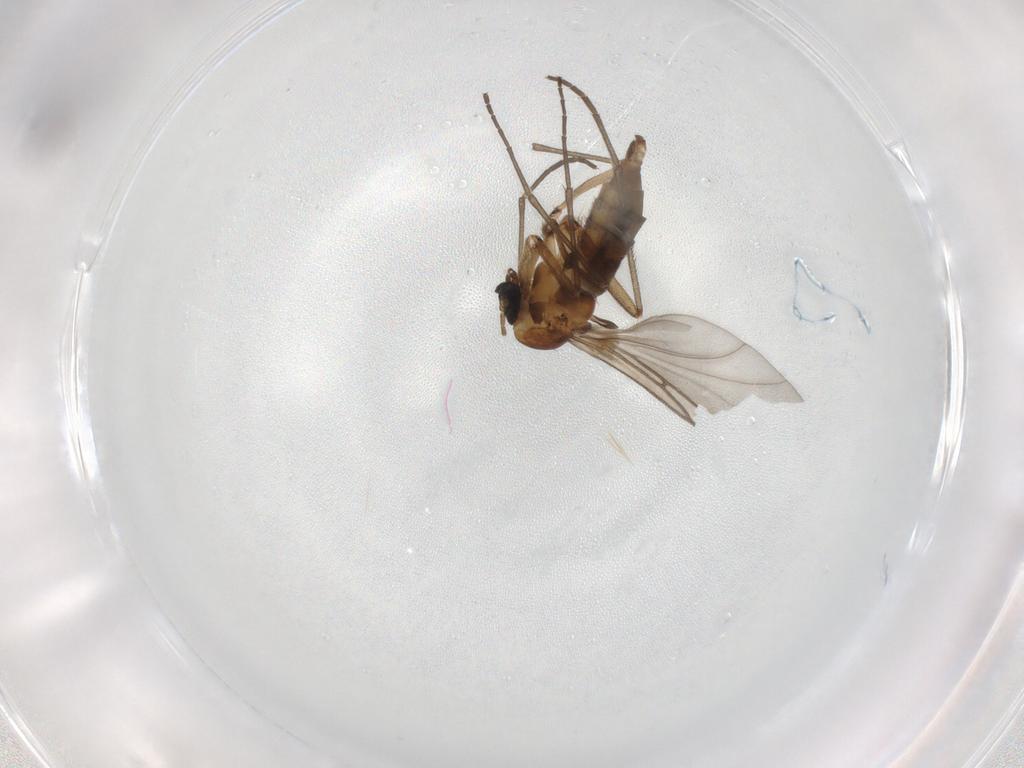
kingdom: Animalia
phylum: Arthropoda
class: Insecta
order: Diptera
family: Sciaridae
